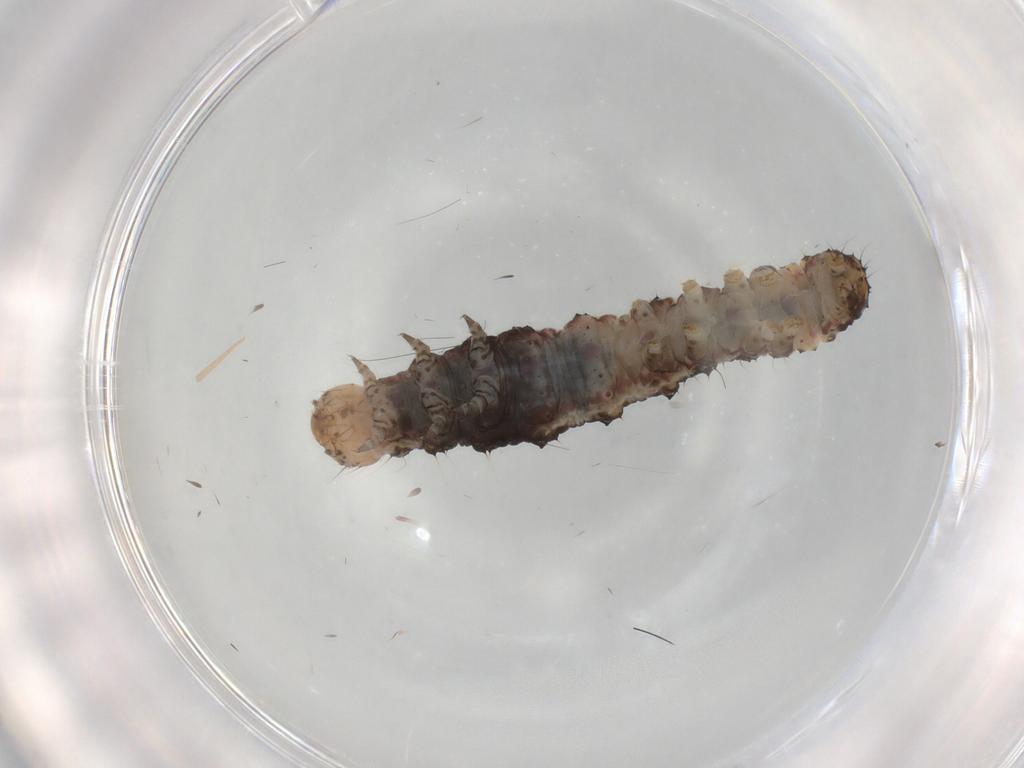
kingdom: Animalia
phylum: Arthropoda
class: Insecta
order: Lepidoptera
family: Noctuidae
